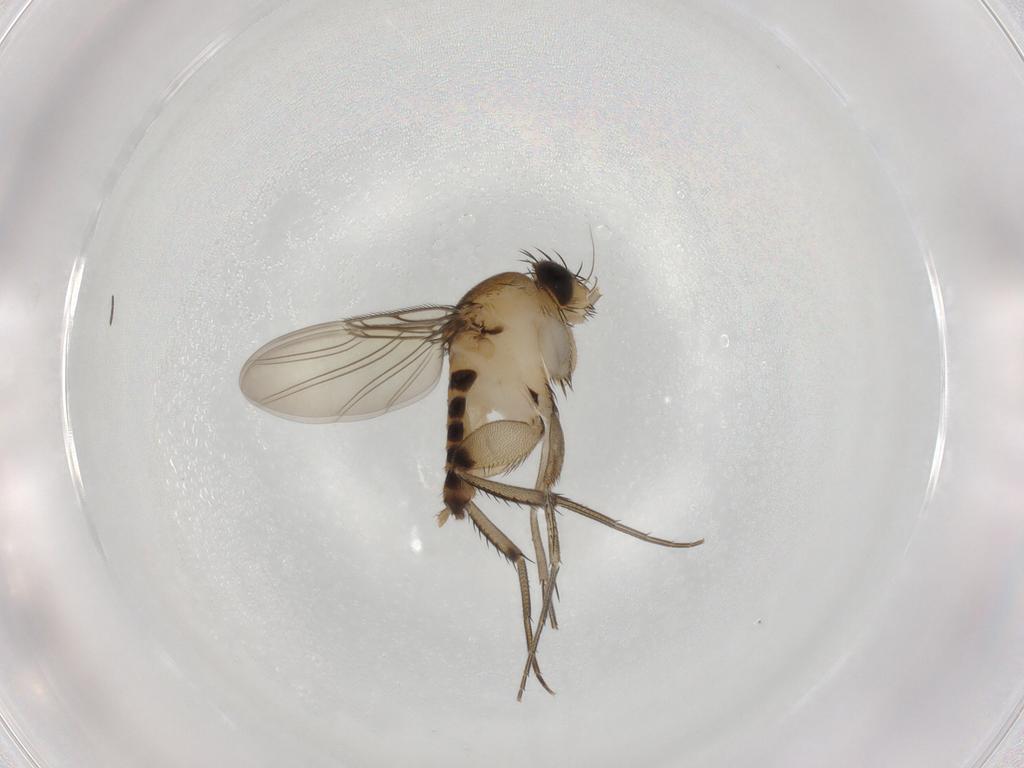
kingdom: Animalia
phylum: Arthropoda
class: Insecta
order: Diptera
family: Phoridae
